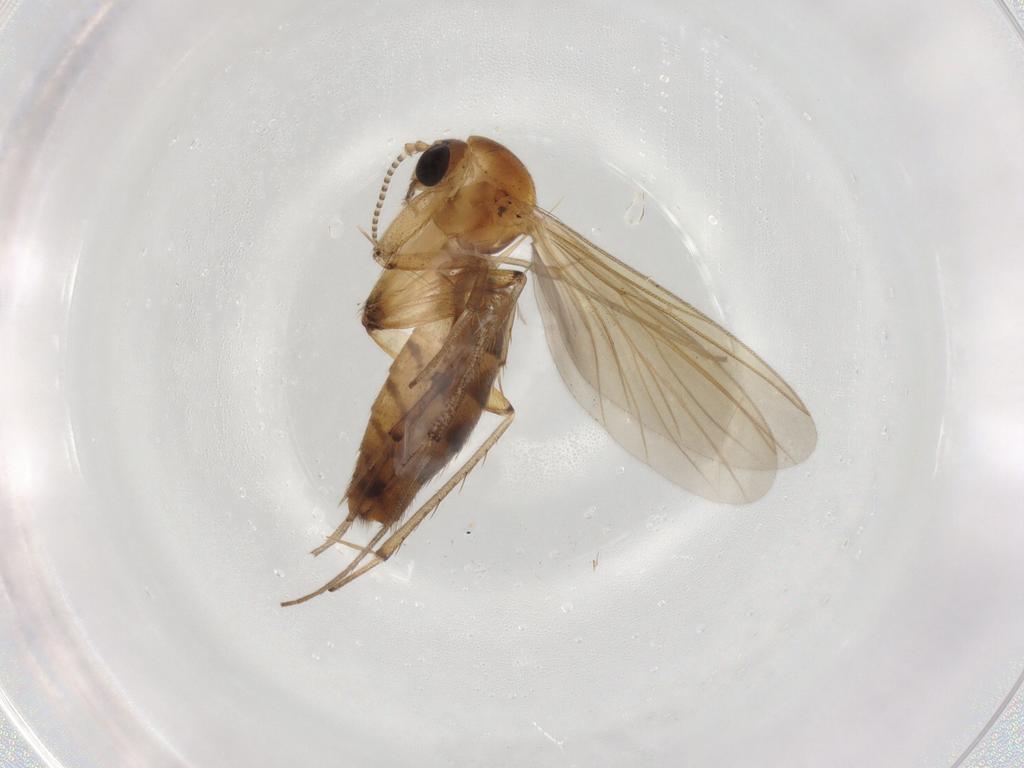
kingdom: Animalia
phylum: Arthropoda
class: Insecta
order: Diptera
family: Mycetophilidae
